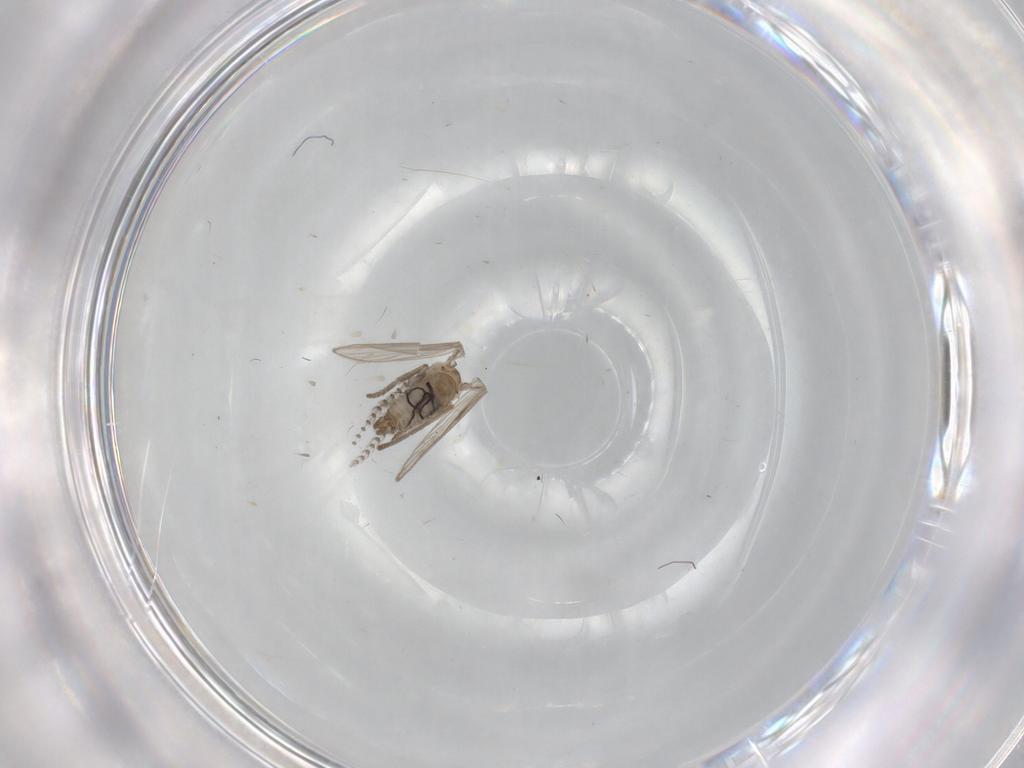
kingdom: Animalia
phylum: Arthropoda
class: Insecta
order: Diptera
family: Psychodidae
